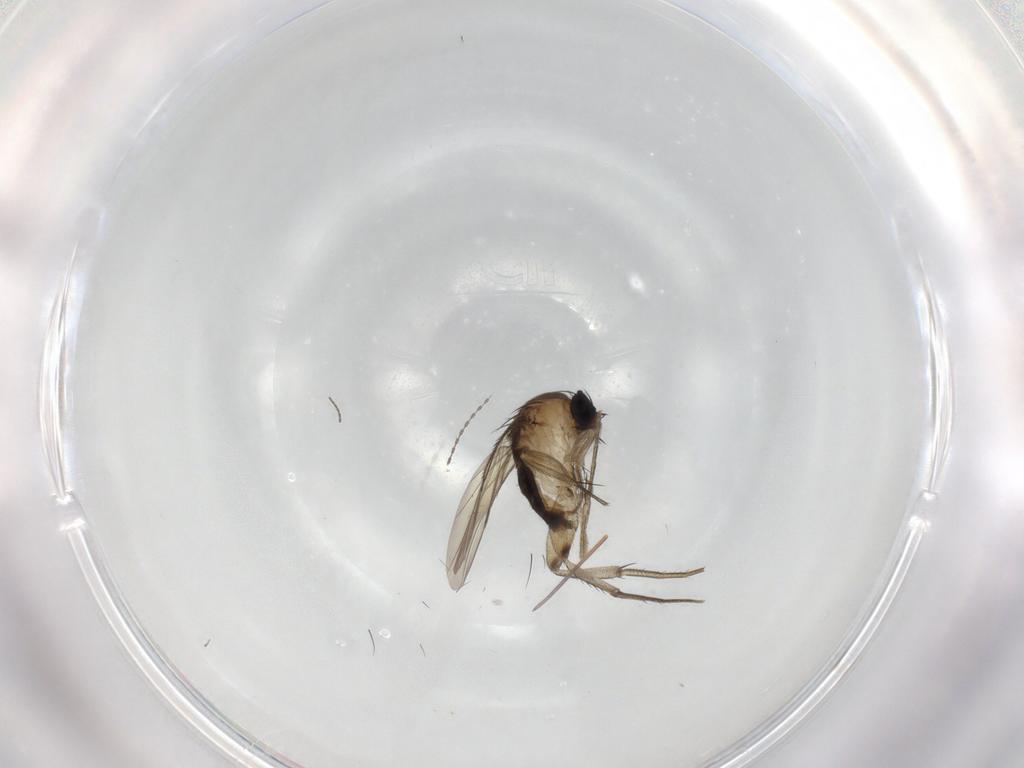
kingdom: Animalia
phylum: Arthropoda
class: Insecta
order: Diptera
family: Phoridae
